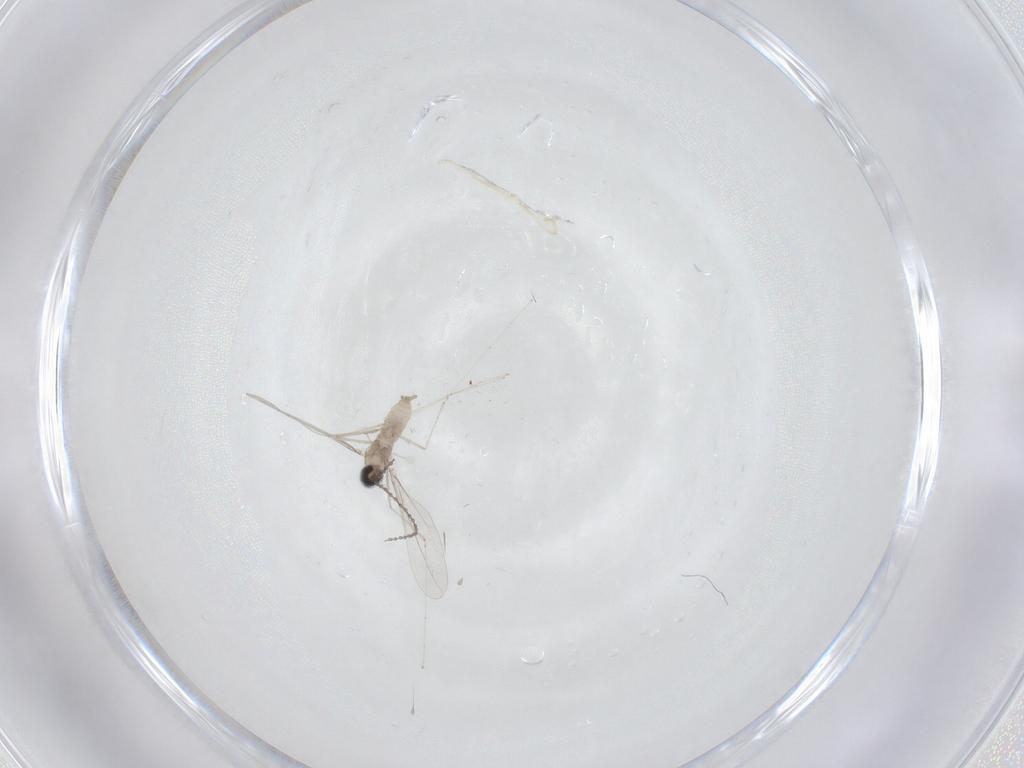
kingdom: Animalia
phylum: Arthropoda
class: Insecta
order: Diptera
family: Cecidomyiidae
